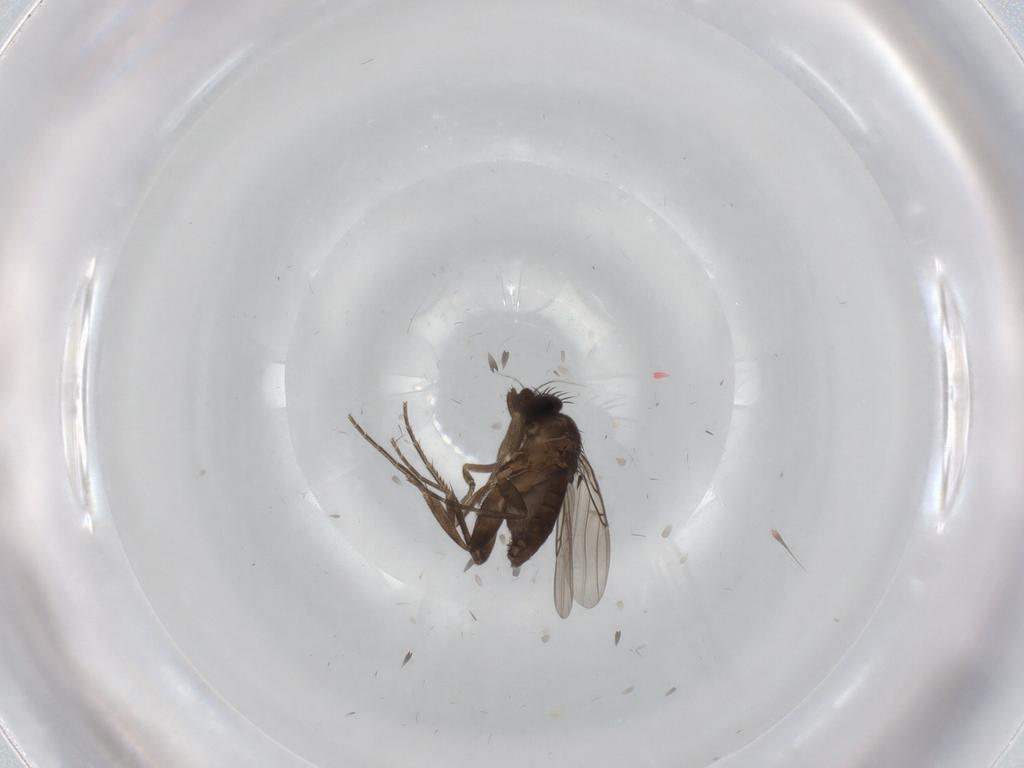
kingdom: Animalia
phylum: Arthropoda
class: Insecta
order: Diptera
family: Phoridae
